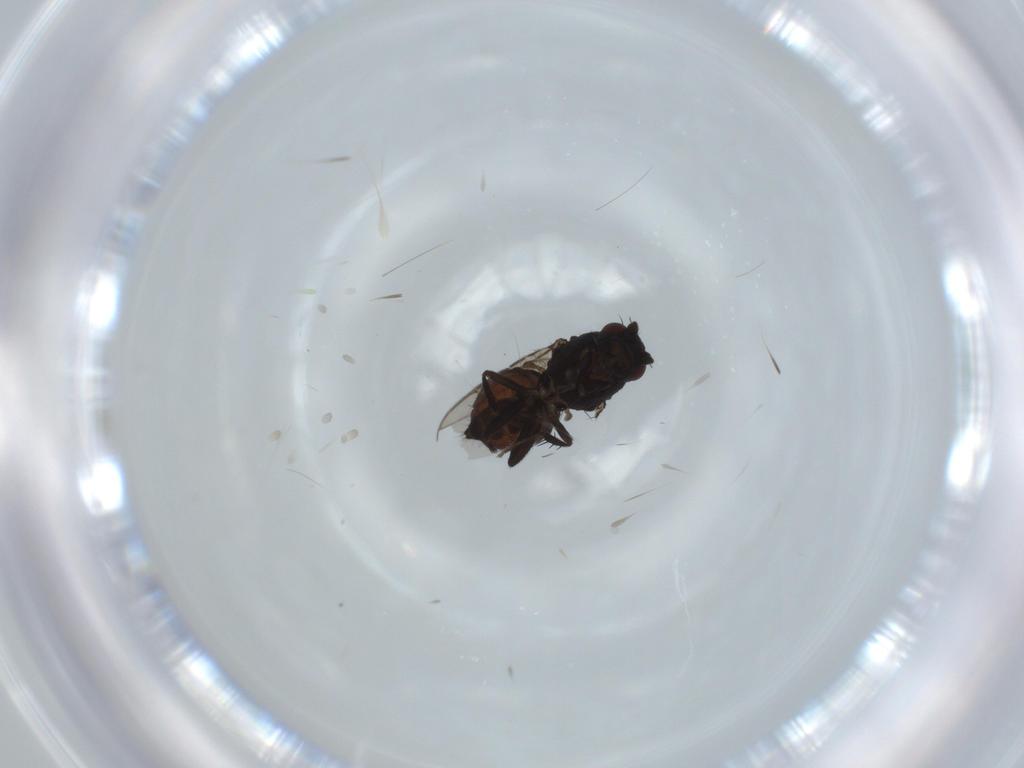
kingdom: Animalia
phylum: Arthropoda
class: Insecta
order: Diptera
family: Sphaeroceridae
